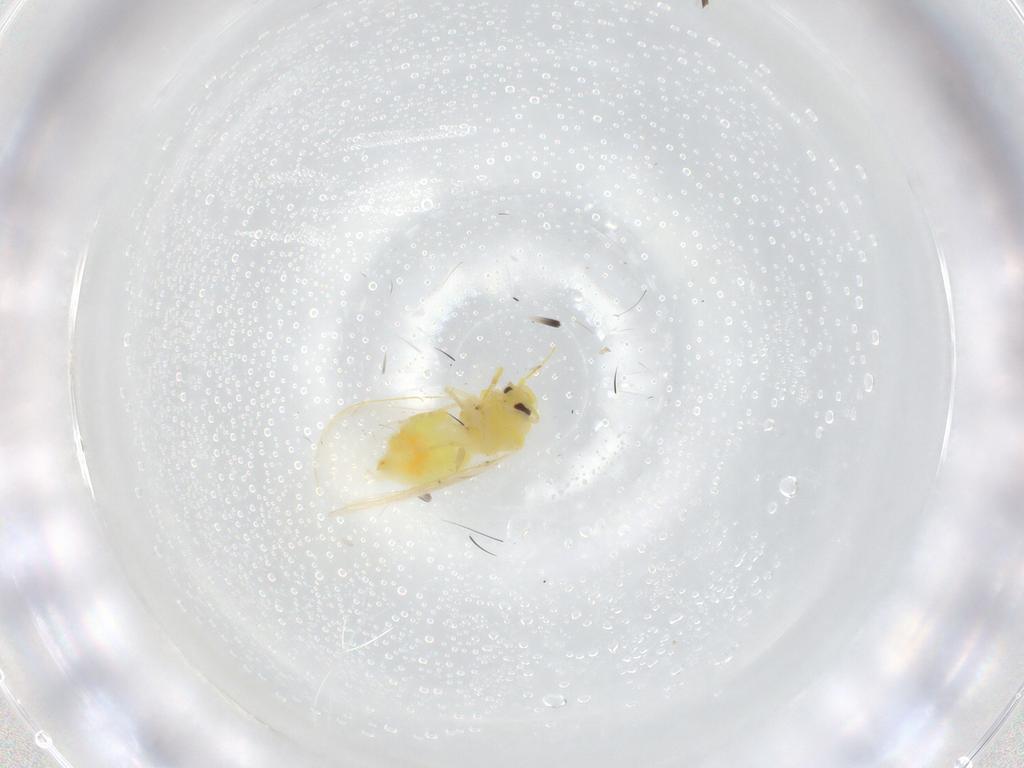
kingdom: Animalia
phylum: Arthropoda
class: Insecta
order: Hemiptera
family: Aleyrodidae
